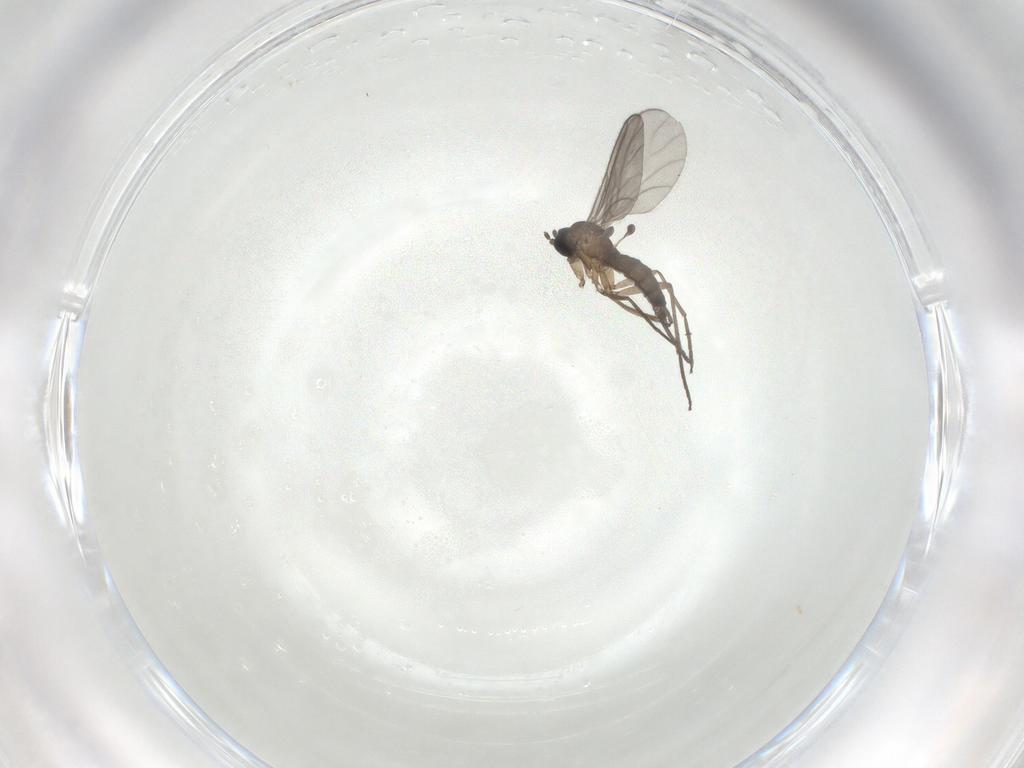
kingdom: Animalia
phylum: Arthropoda
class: Insecta
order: Diptera
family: Sciaridae
